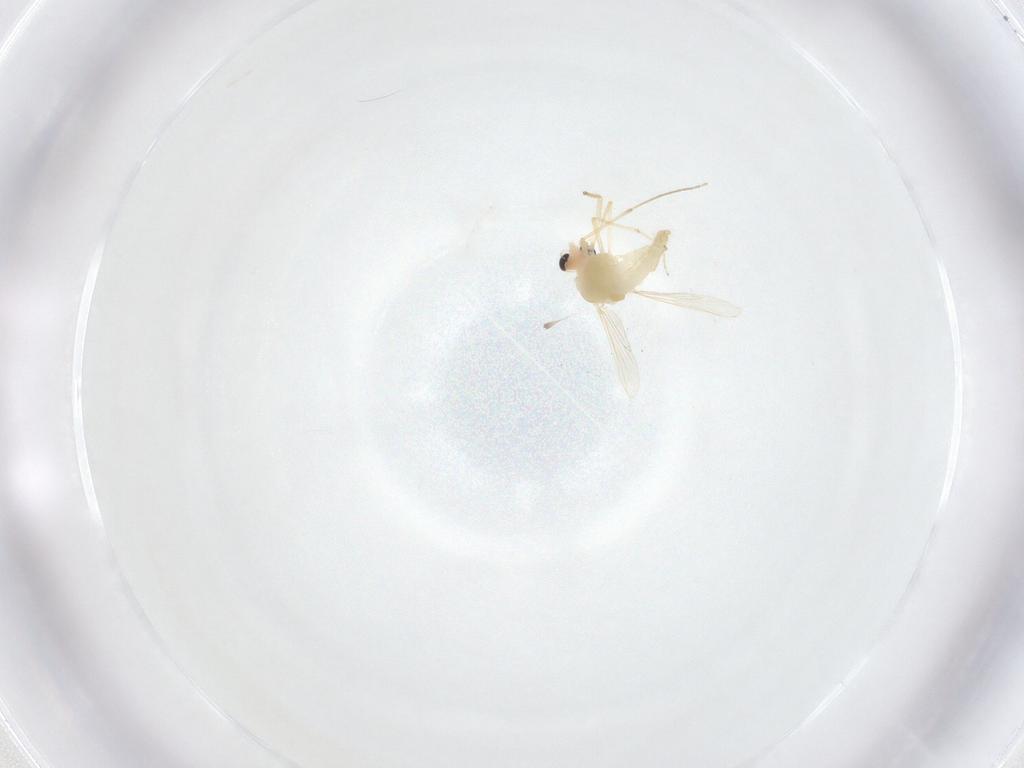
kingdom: Animalia
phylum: Arthropoda
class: Insecta
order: Diptera
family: Chironomidae
